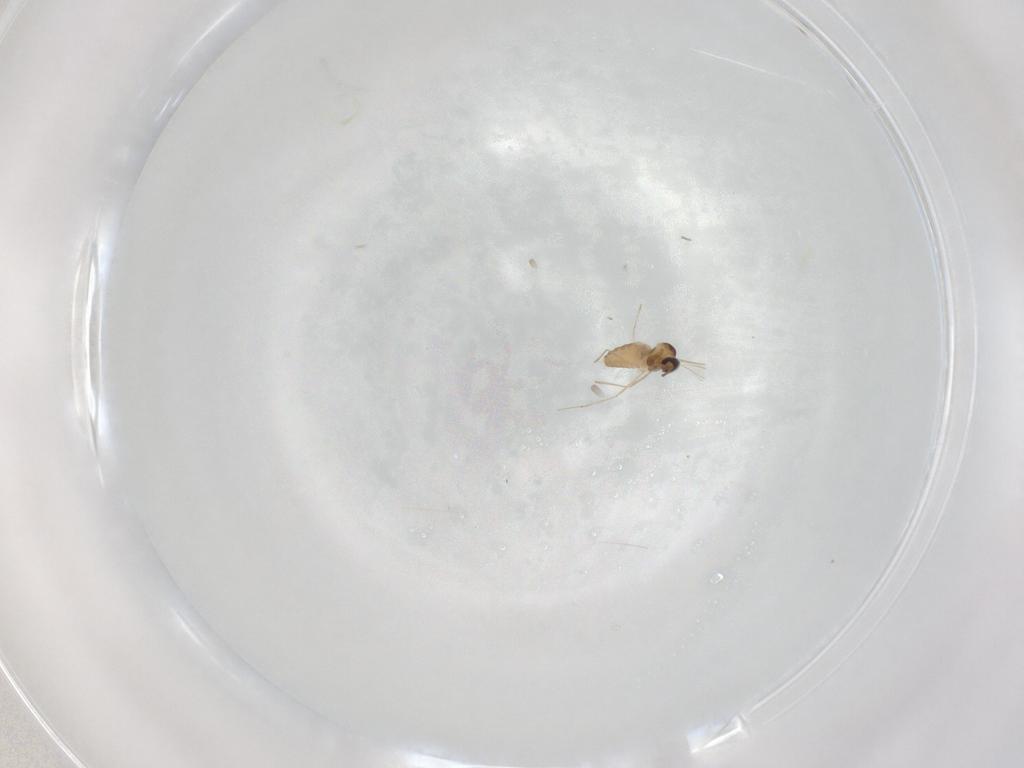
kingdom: Animalia
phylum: Arthropoda
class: Insecta
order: Diptera
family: Cecidomyiidae
